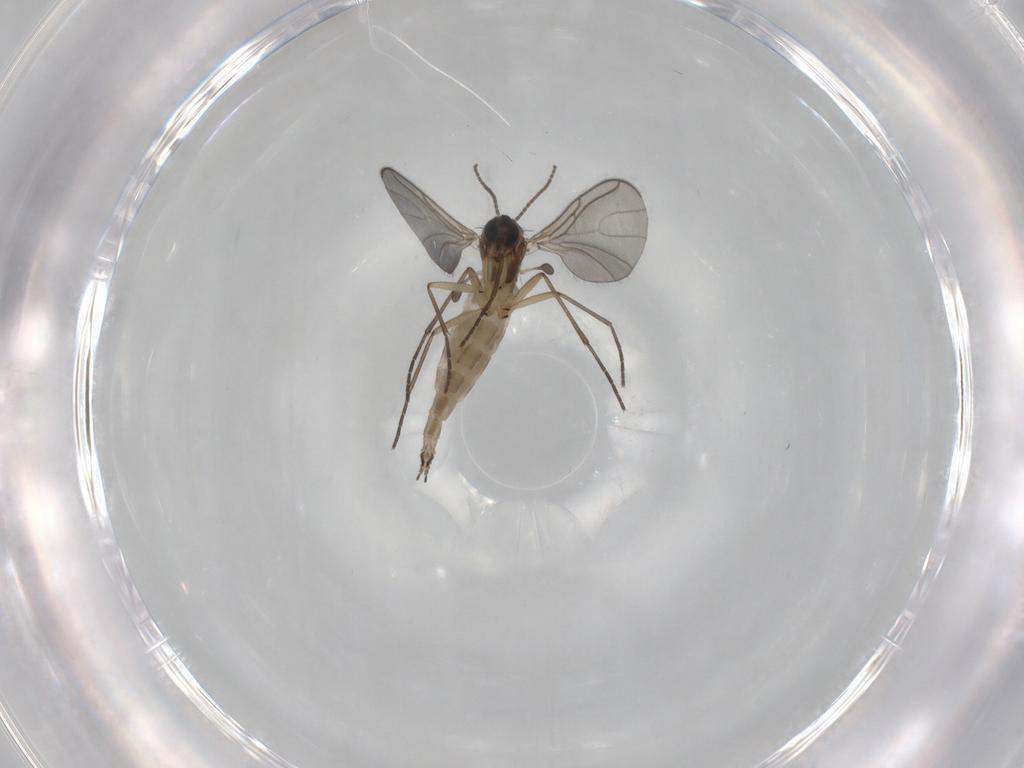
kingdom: Animalia
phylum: Arthropoda
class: Insecta
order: Diptera
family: Sciaridae
